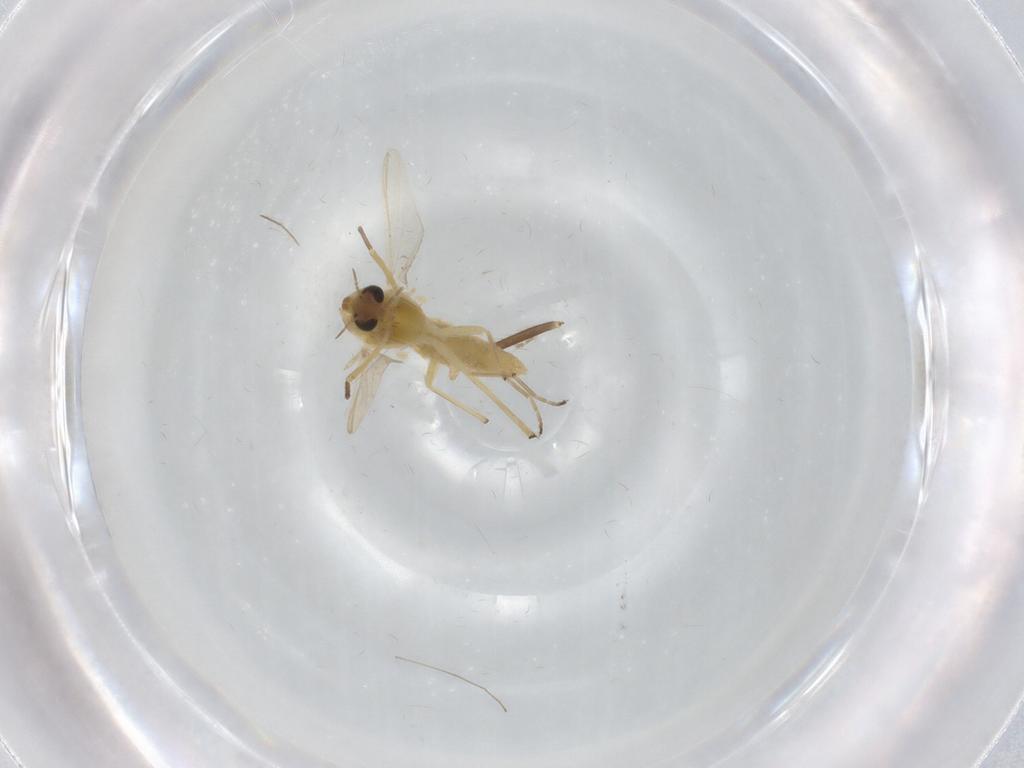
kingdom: Animalia
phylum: Arthropoda
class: Insecta
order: Diptera
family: Chironomidae
